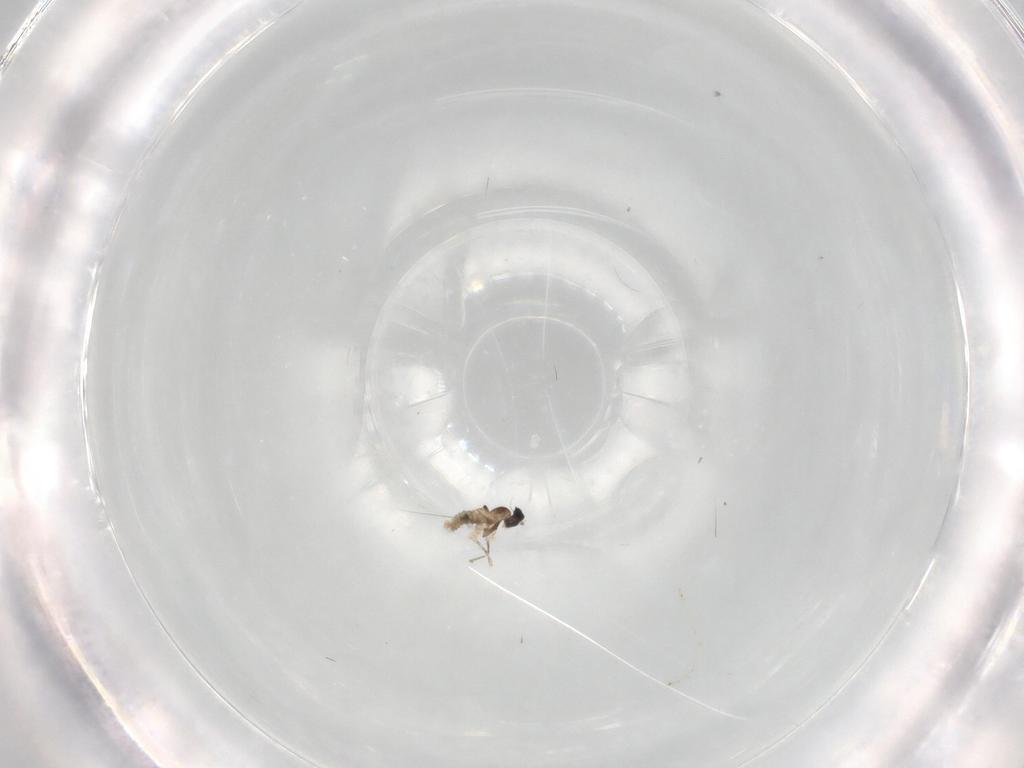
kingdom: Animalia
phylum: Arthropoda
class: Insecta
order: Diptera
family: Cecidomyiidae
